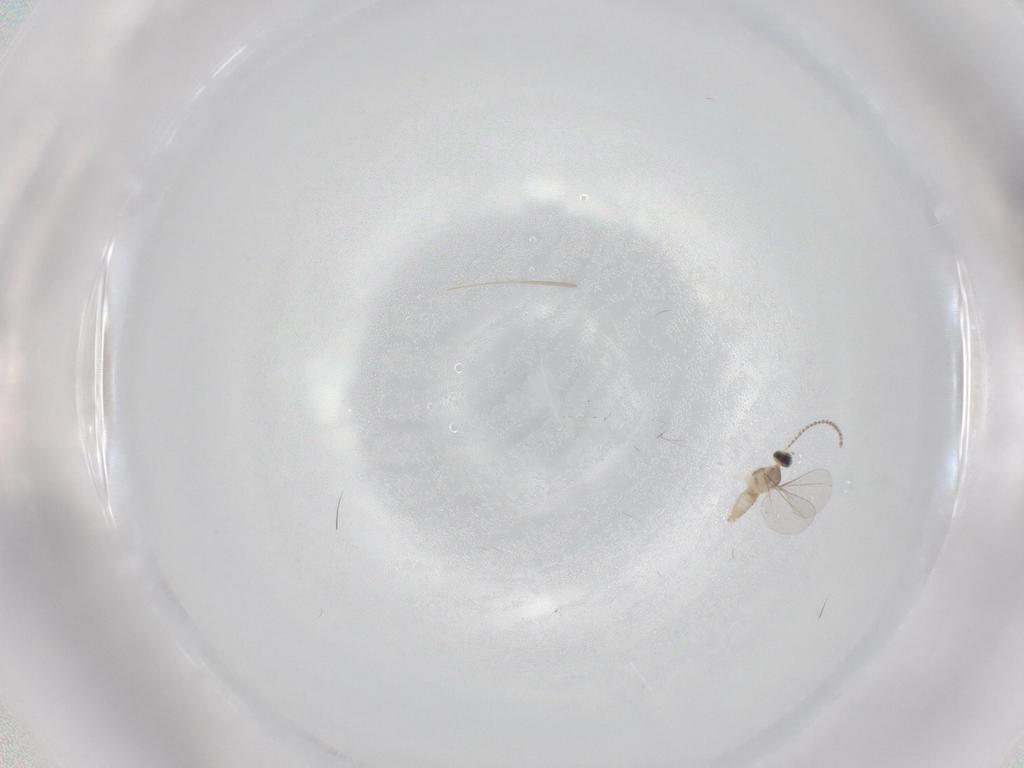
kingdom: Animalia
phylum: Arthropoda
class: Insecta
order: Diptera
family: Cecidomyiidae
